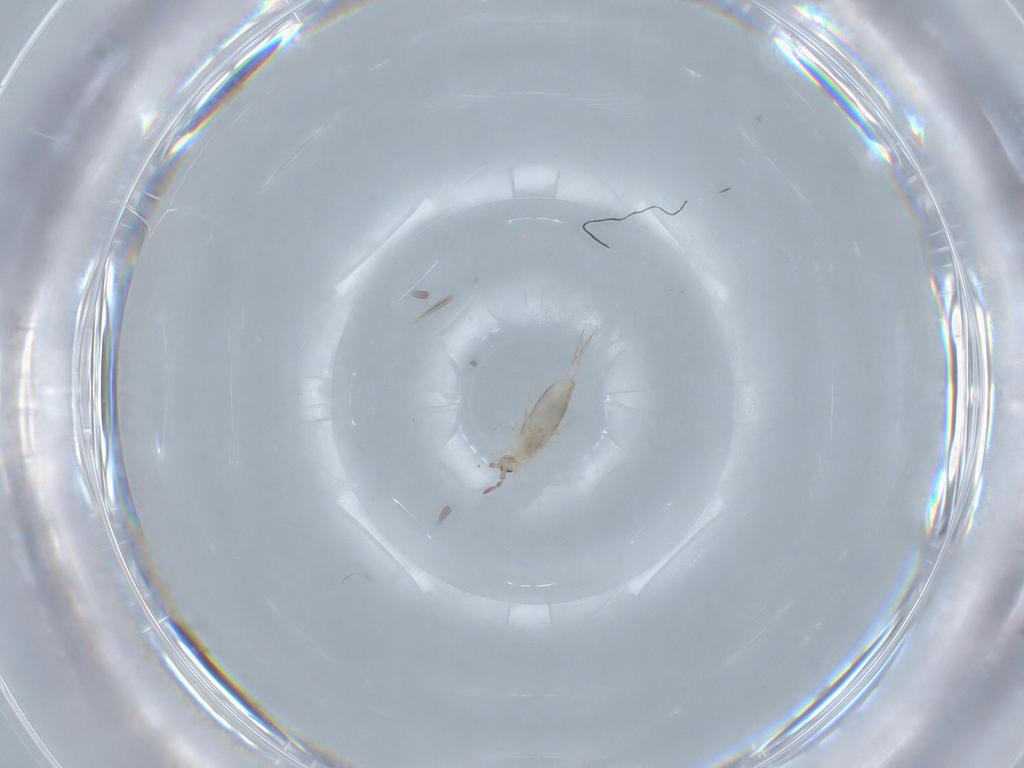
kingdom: Animalia
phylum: Arthropoda
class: Collembola
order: Entomobryomorpha
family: Entomobryidae
